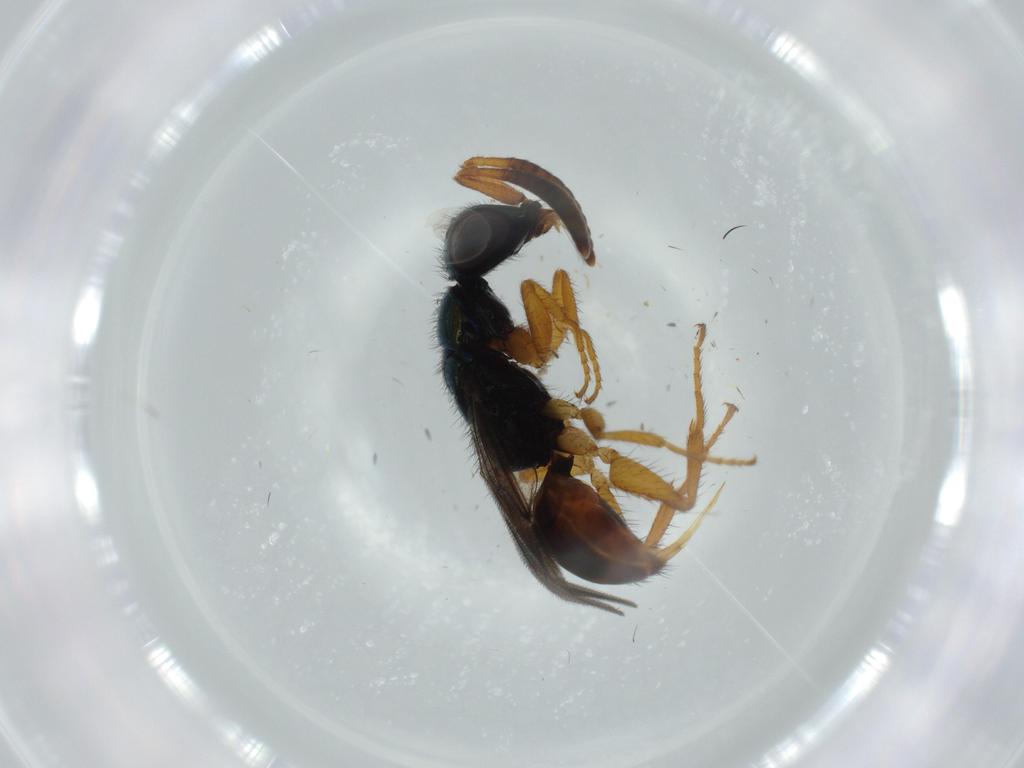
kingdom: Animalia
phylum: Arthropoda
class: Insecta
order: Hymenoptera
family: Chrysididae
